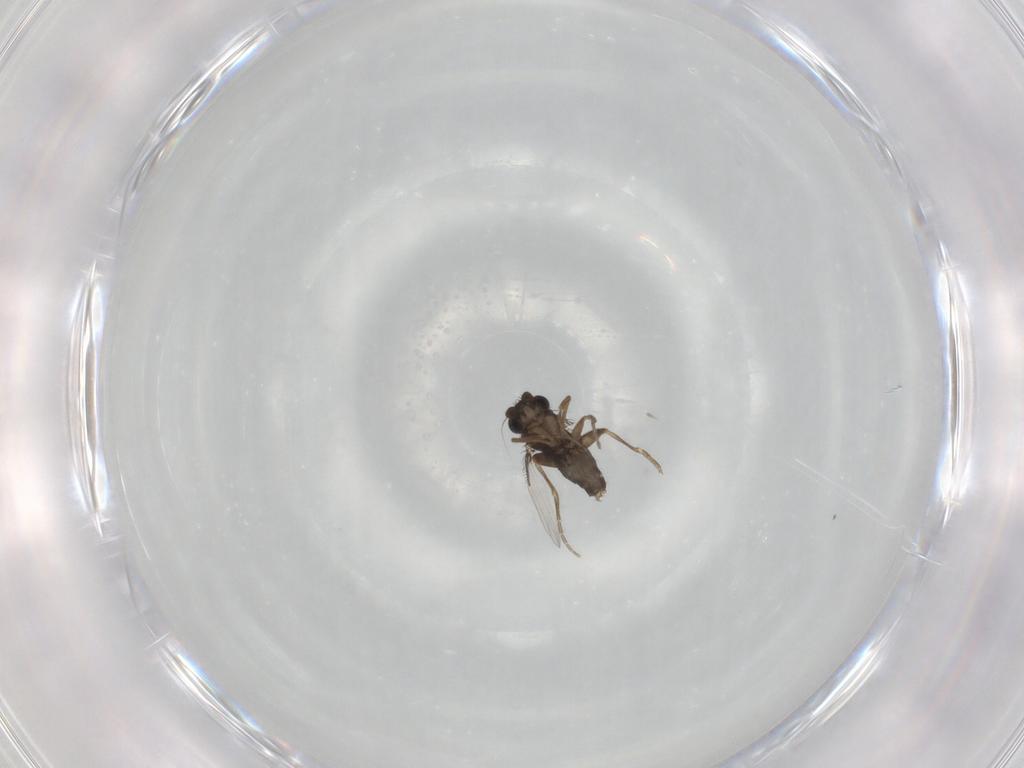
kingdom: Animalia
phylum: Arthropoda
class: Insecta
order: Diptera
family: Phoridae
